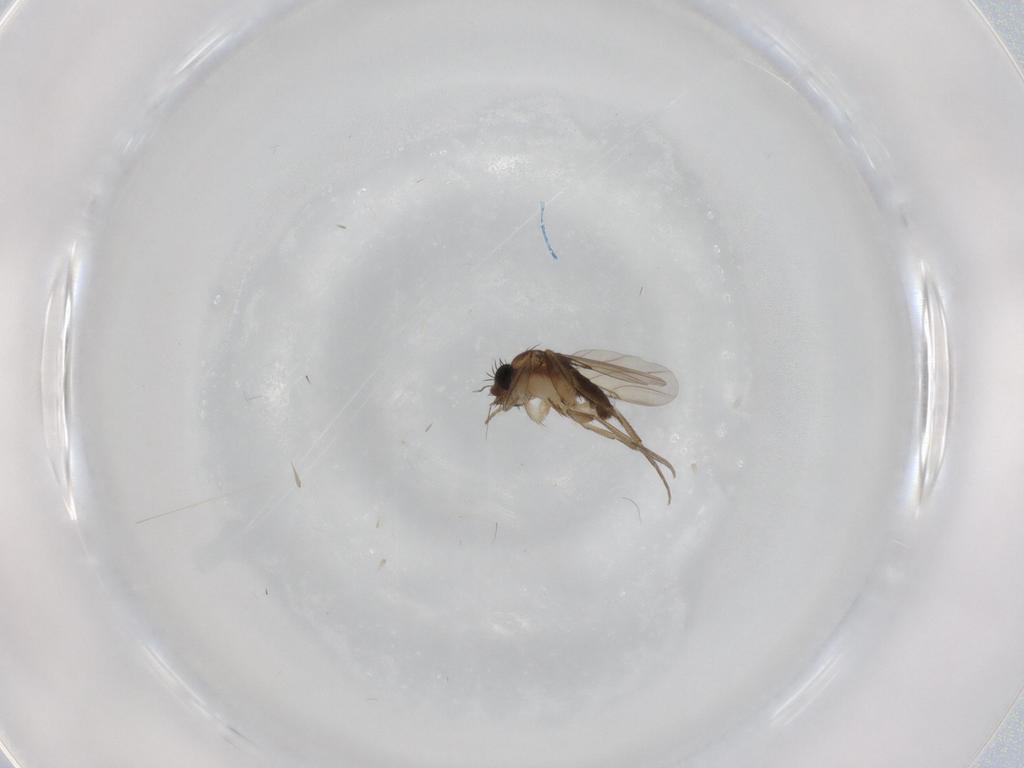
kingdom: Animalia
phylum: Arthropoda
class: Insecta
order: Diptera
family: Phoridae
